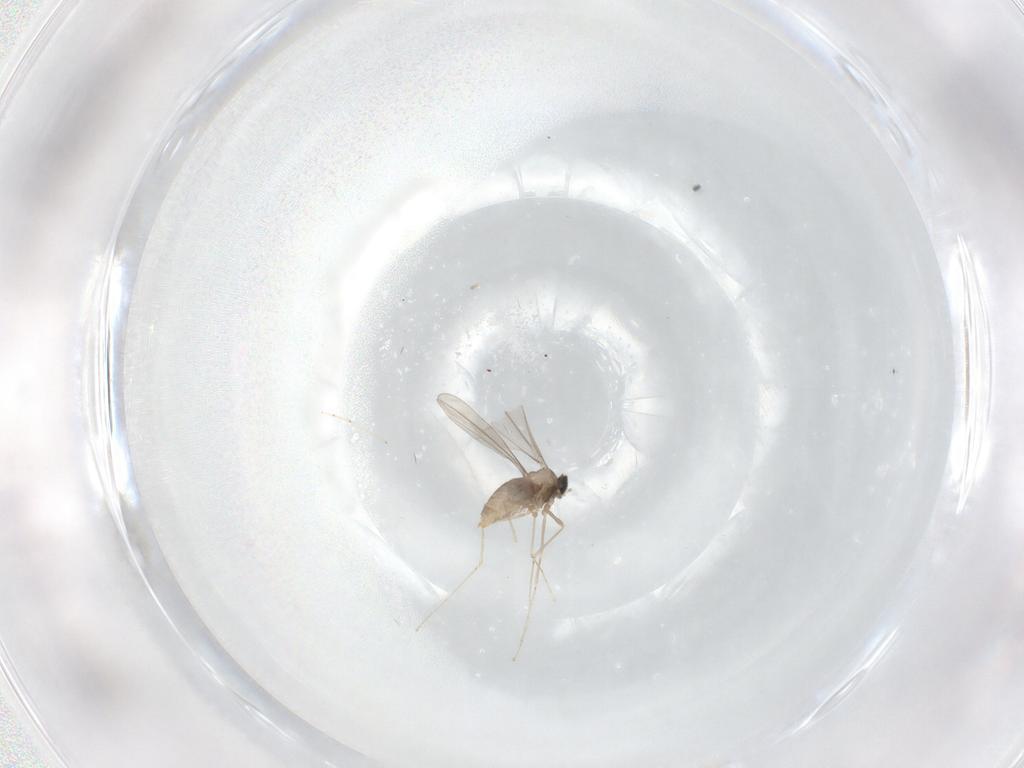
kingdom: Animalia
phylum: Arthropoda
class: Insecta
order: Diptera
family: Cecidomyiidae
